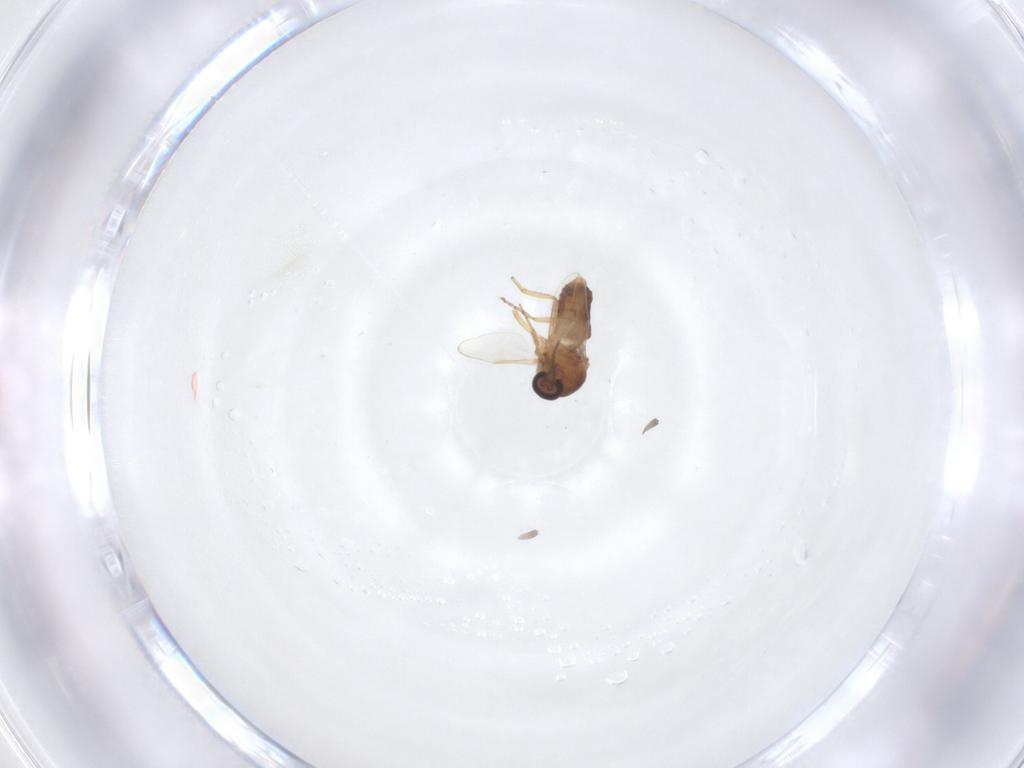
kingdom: Animalia
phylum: Arthropoda
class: Insecta
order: Diptera
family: Ceratopogonidae
